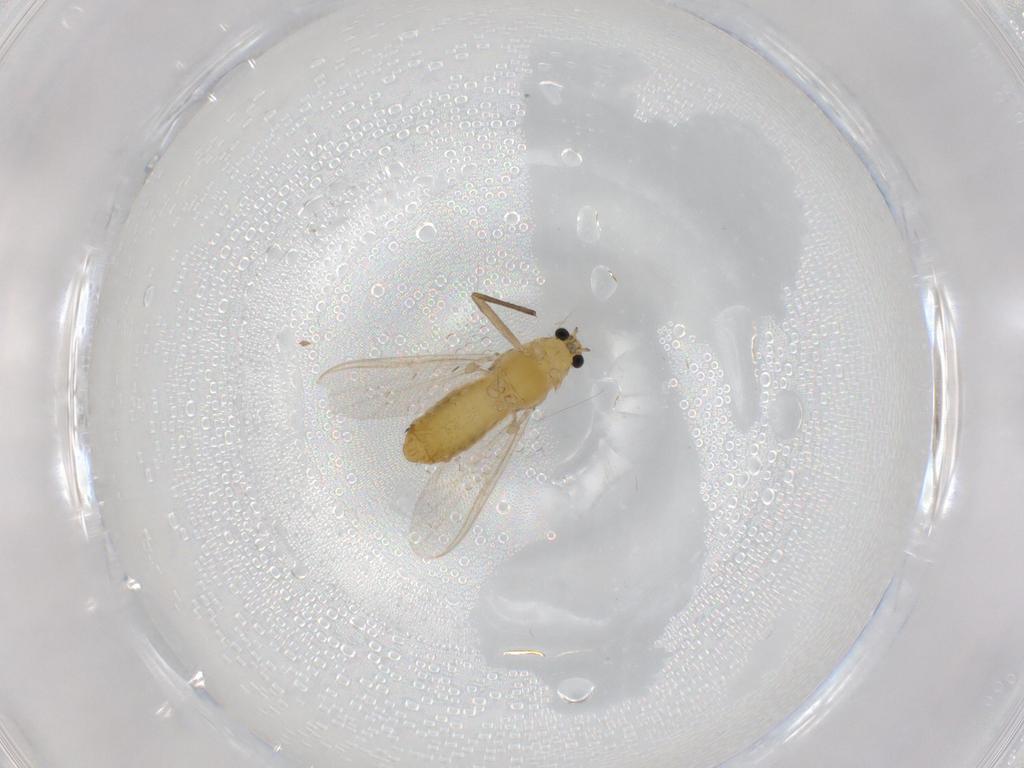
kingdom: Animalia
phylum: Arthropoda
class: Insecta
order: Diptera
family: Chironomidae
